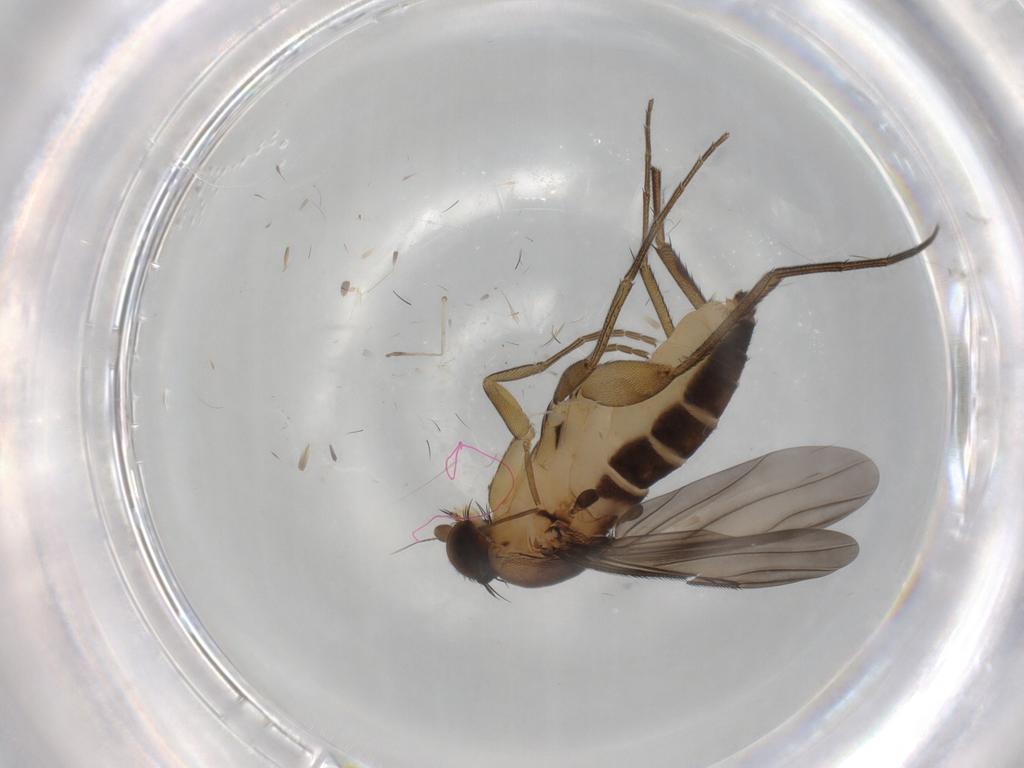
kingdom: Animalia
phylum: Arthropoda
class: Insecta
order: Diptera
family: Phoridae
